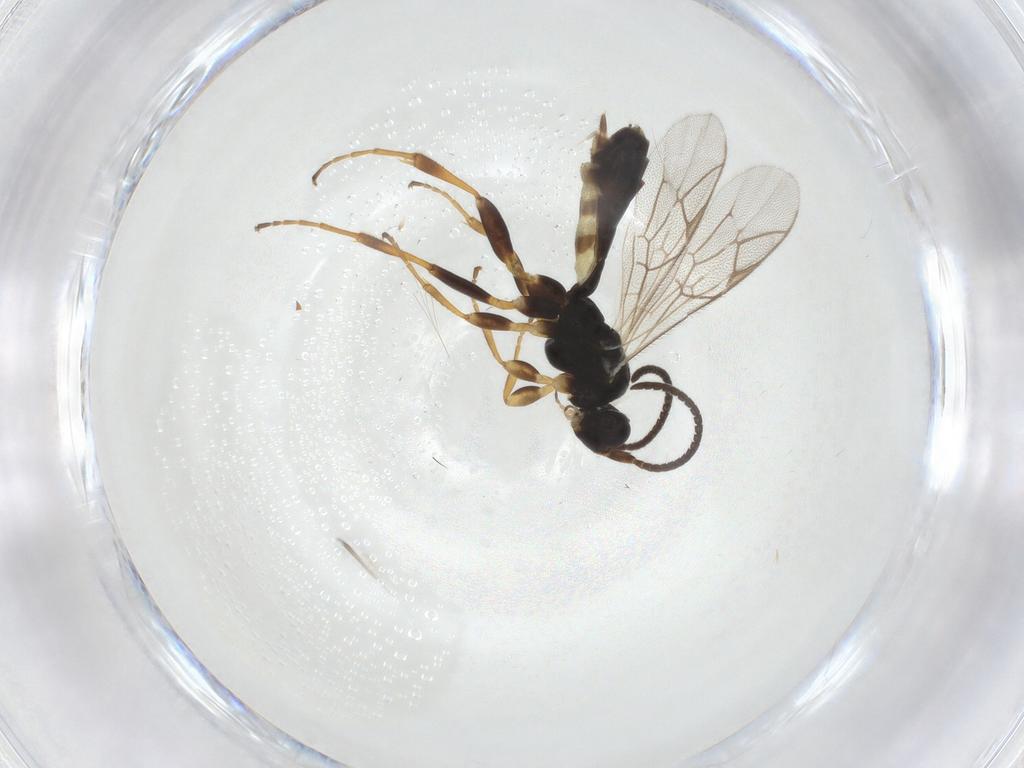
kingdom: Animalia
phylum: Arthropoda
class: Insecta
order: Hymenoptera
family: Ichneumonidae
